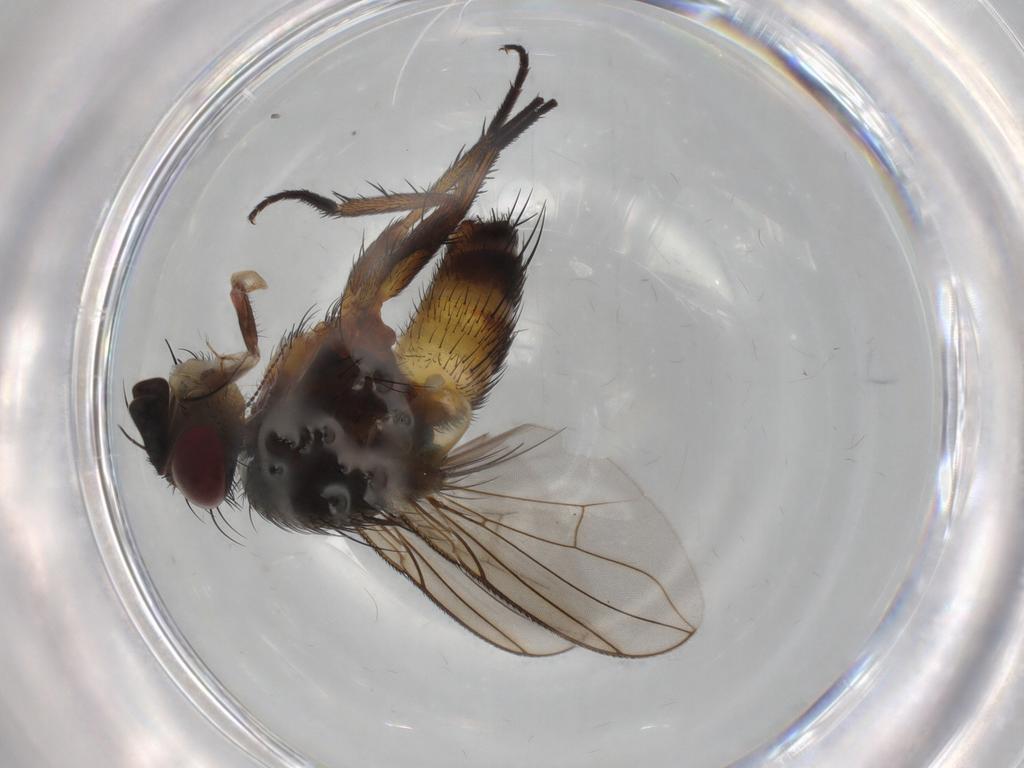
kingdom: Animalia
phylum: Arthropoda
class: Insecta
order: Diptera
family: Tachinidae
